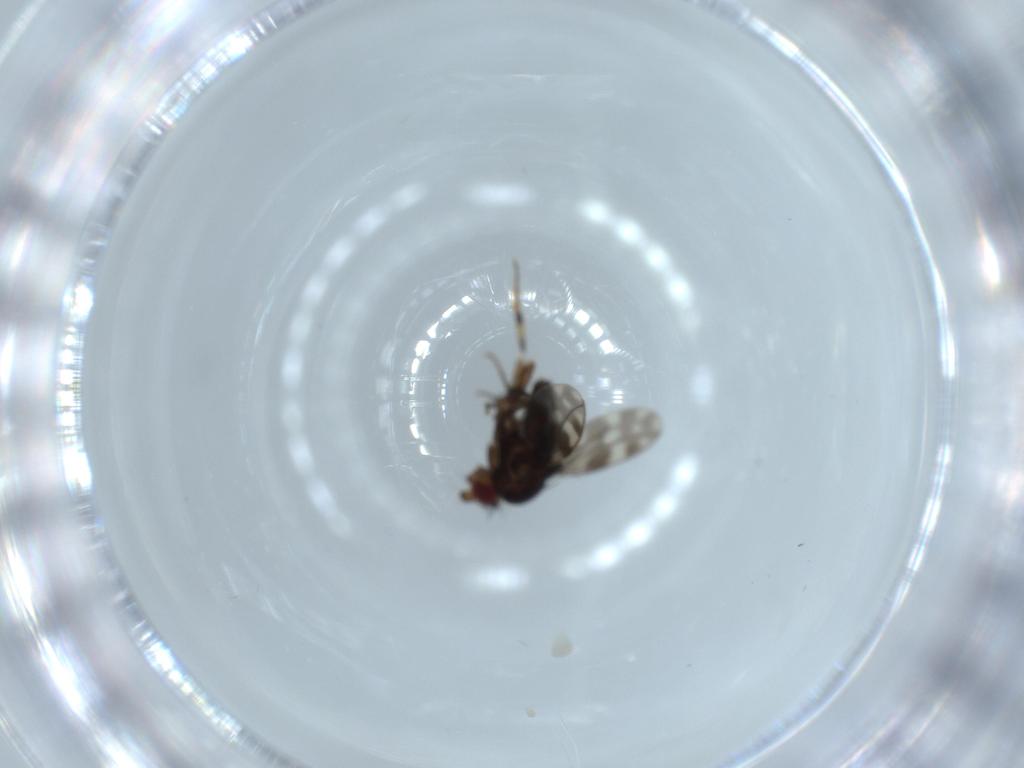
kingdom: Animalia
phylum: Arthropoda
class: Insecta
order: Diptera
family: Sphaeroceridae
